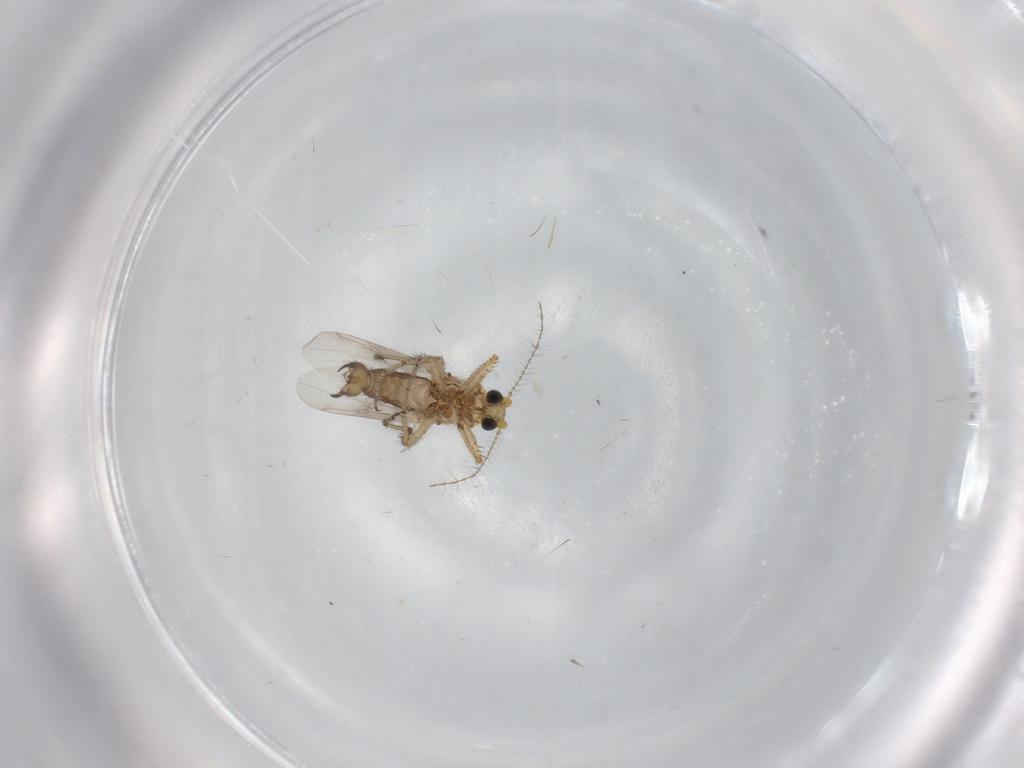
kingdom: Animalia
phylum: Arthropoda
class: Insecta
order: Diptera
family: Ceratopogonidae
